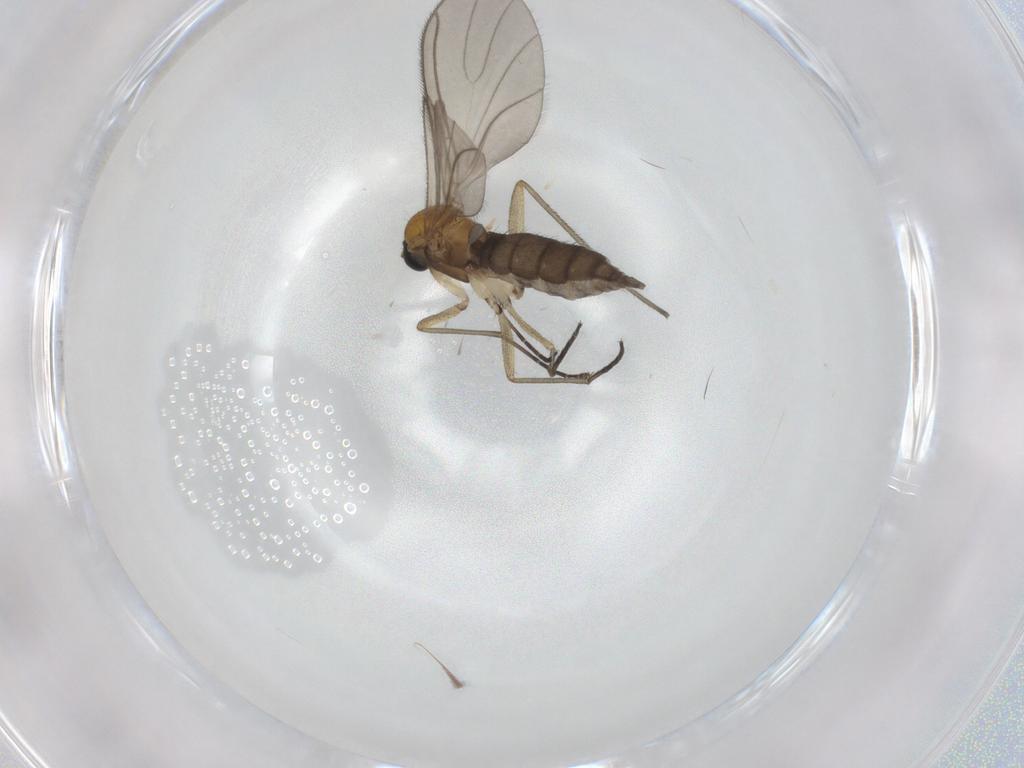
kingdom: Animalia
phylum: Arthropoda
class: Insecta
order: Diptera
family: Sciaridae
